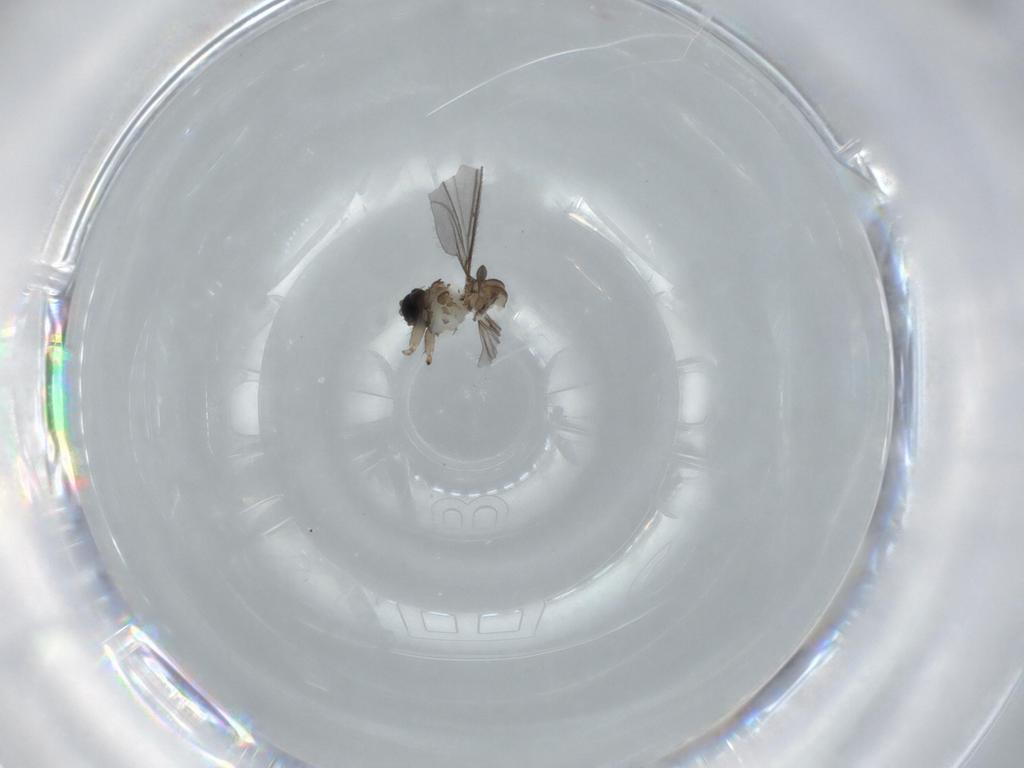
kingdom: Animalia
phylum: Arthropoda
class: Insecta
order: Diptera
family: Sciaridae
